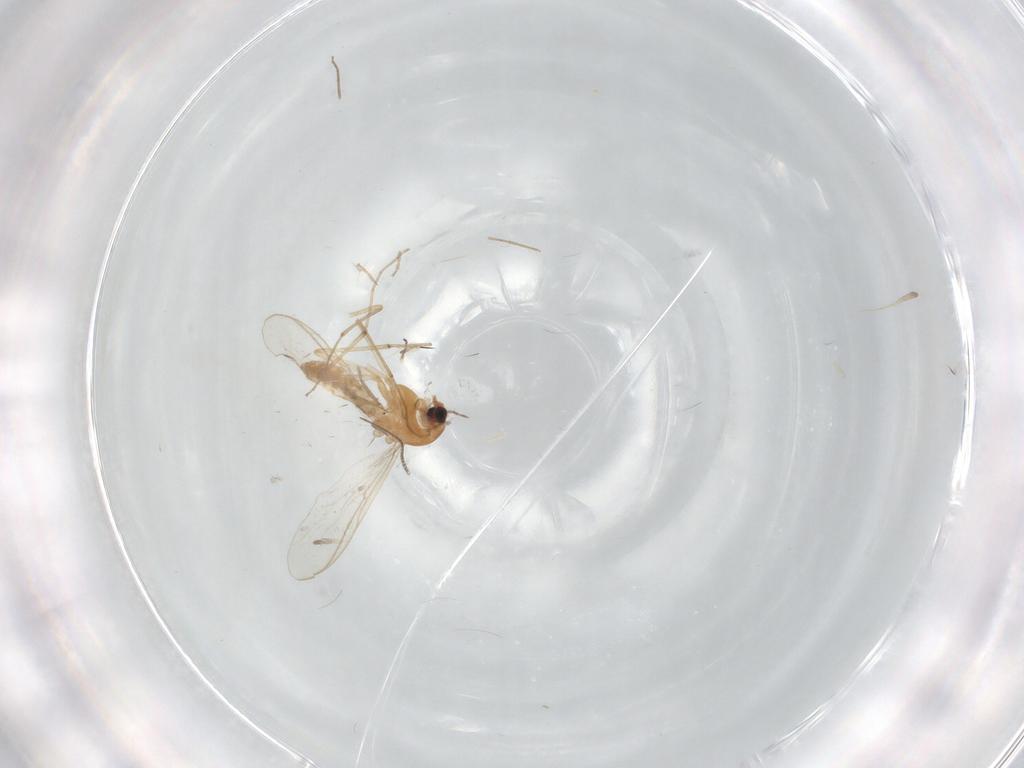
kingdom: Animalia
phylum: Arthropoda
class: Insecta
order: Diptera
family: Chironomidae
